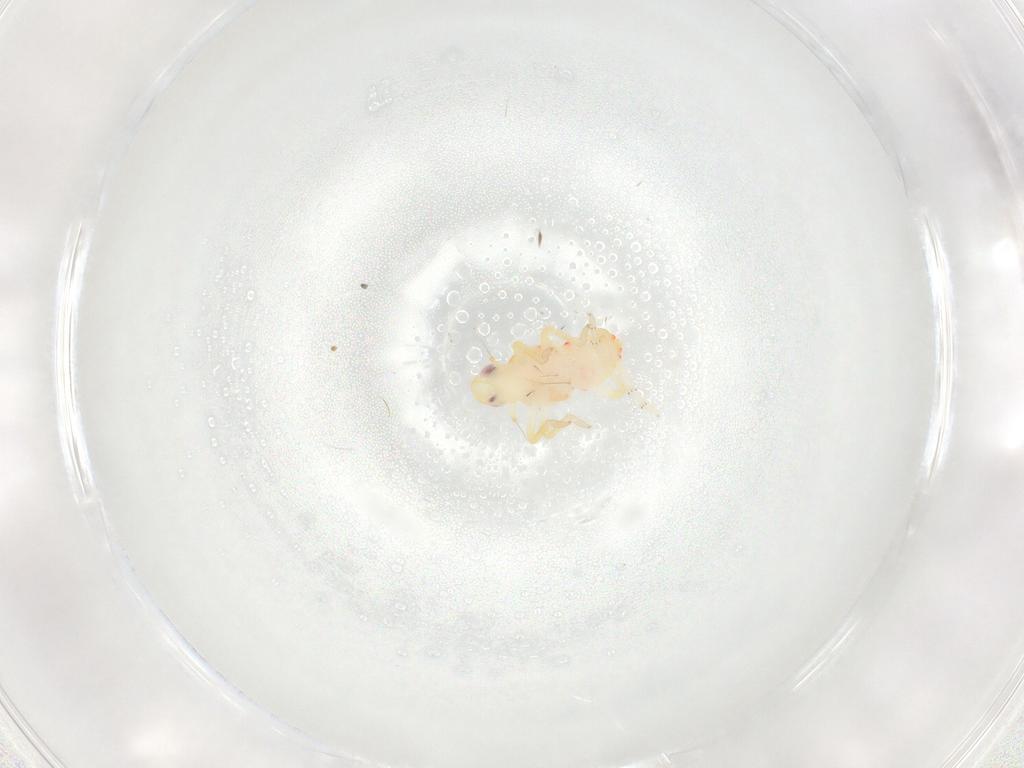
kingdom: Animalia
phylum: Arthropoda
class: Insecta
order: Hemiptera
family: Tropiduchidae
